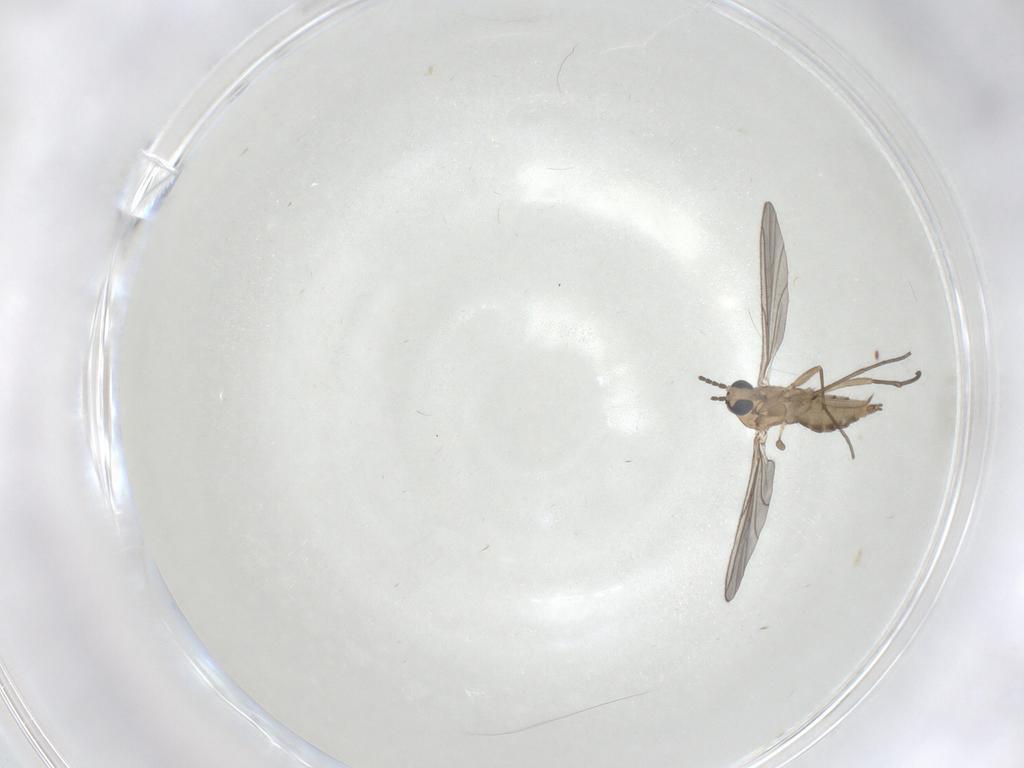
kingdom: Animalia
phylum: Arthropoda
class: Insecta
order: Diptera
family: Sciaridae
